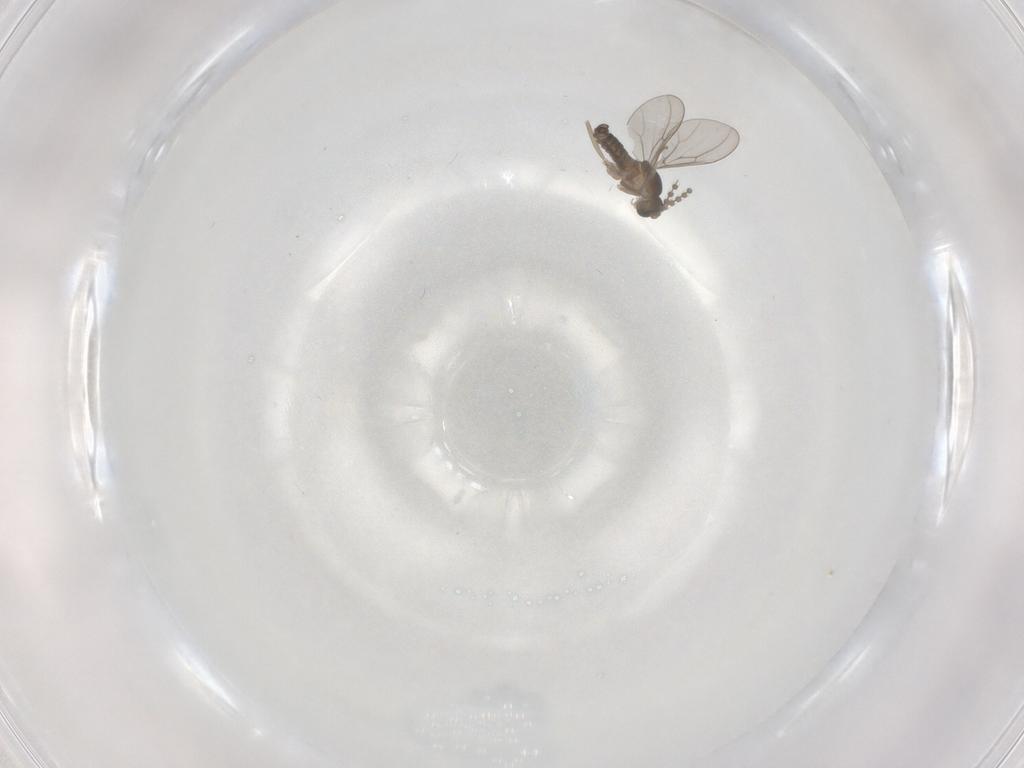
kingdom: Animalia
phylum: Arthropoda
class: Insecta
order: Diptera
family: Cecidomyiidae
